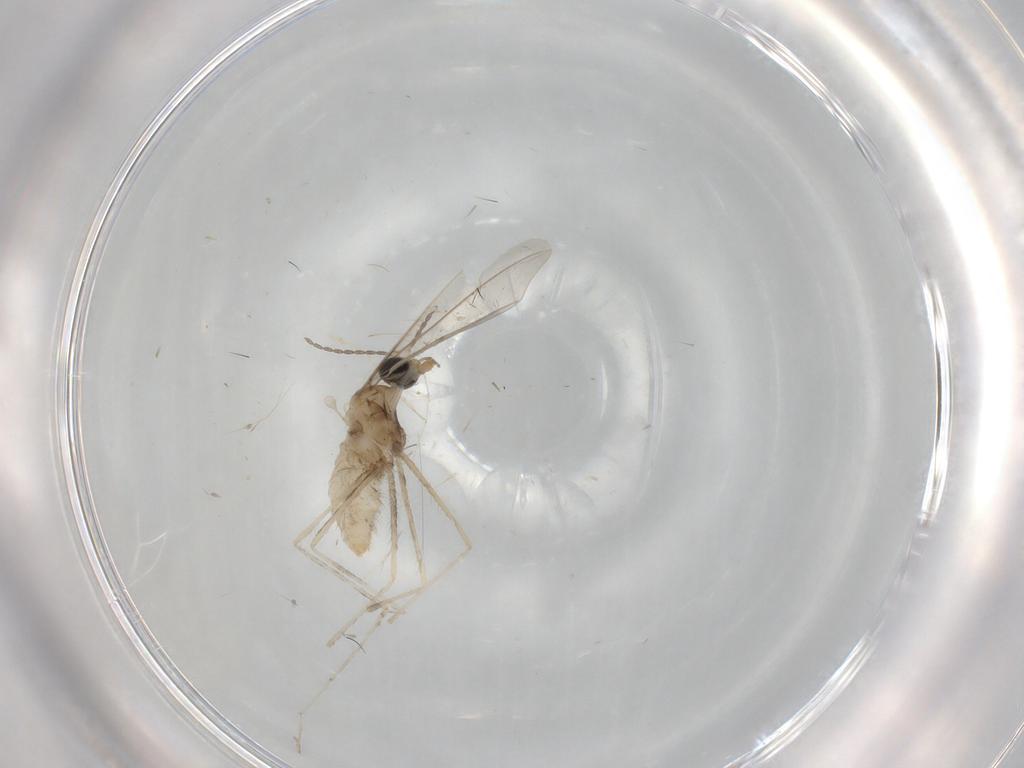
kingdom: Animalia
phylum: Arthropoda
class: Insecta
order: Diptera
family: Cecidomyiidae
